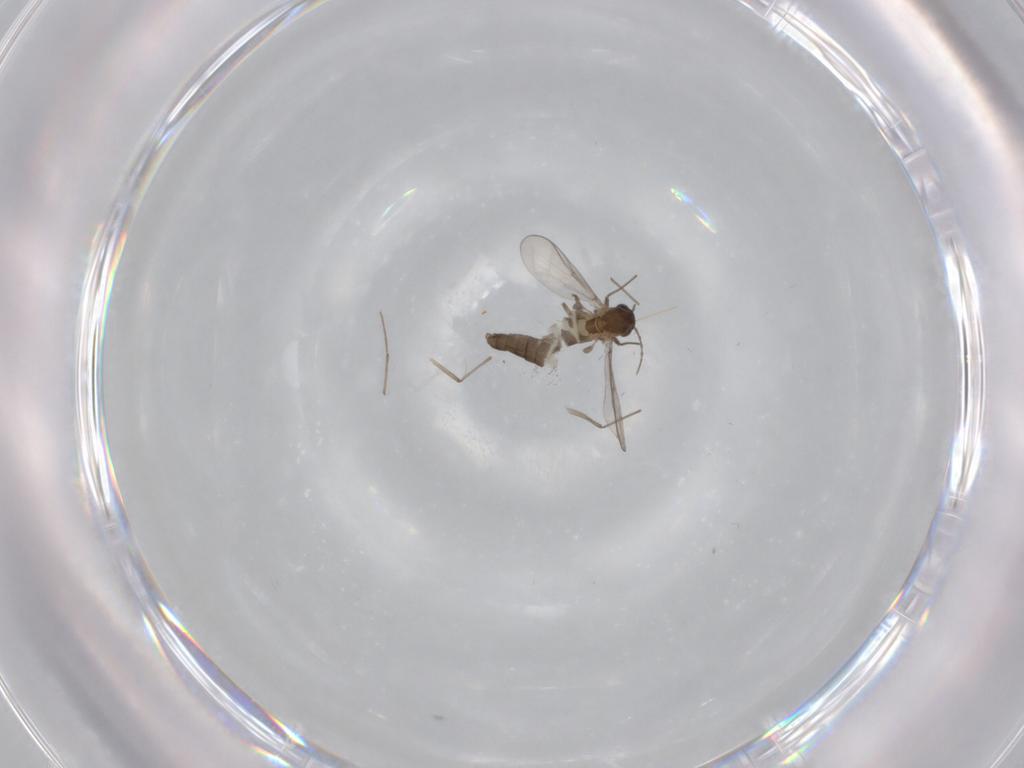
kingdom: Animalia
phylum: Arthropoda
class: Insecta
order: Diptera
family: Chironomidae
